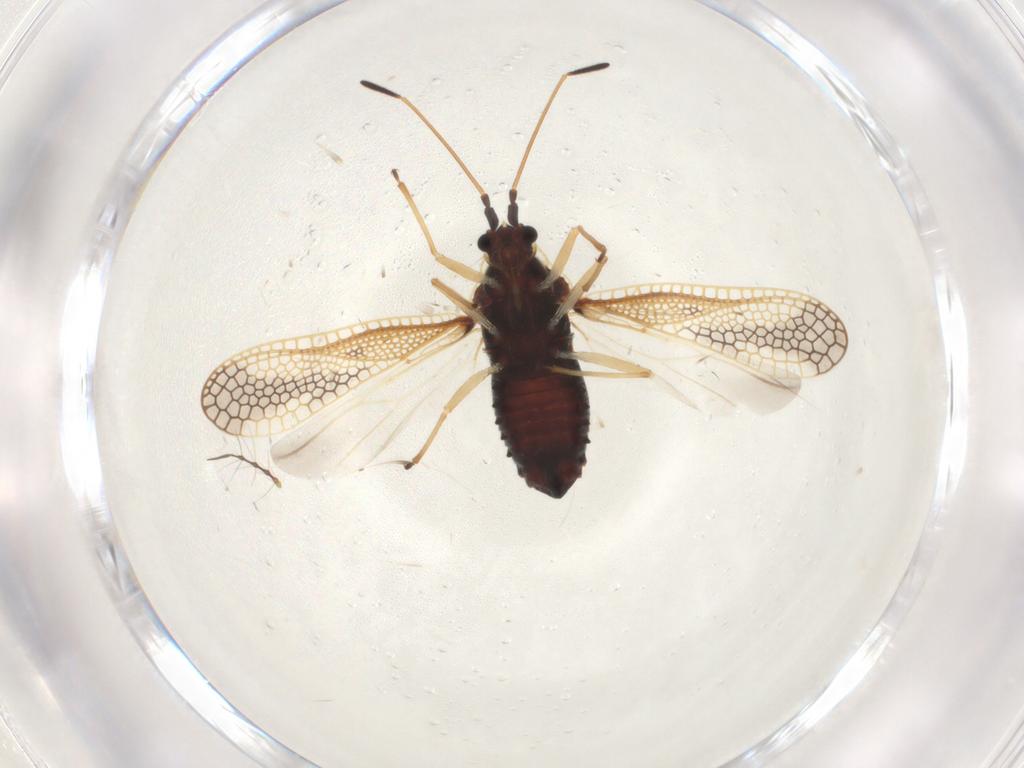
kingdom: Animalia
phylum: Arthropoda
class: Insecta
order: Hemiptera
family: Tingidae
